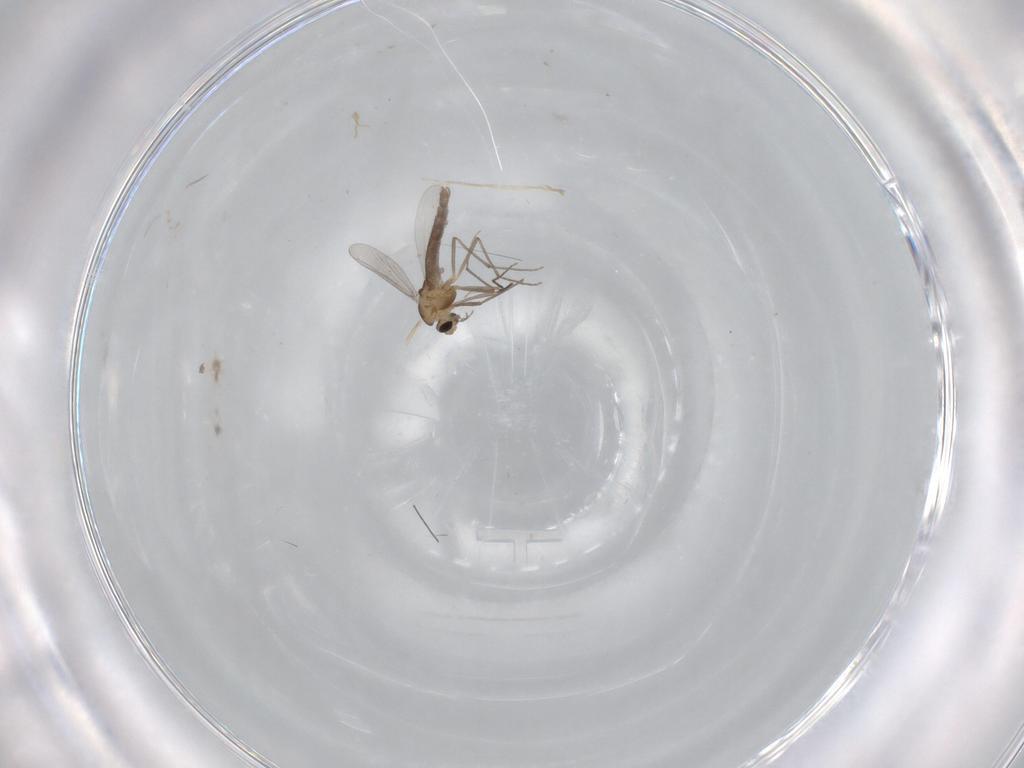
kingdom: Animalia
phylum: Arthropoda
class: Insecta
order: Diptera
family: Chironomidae
